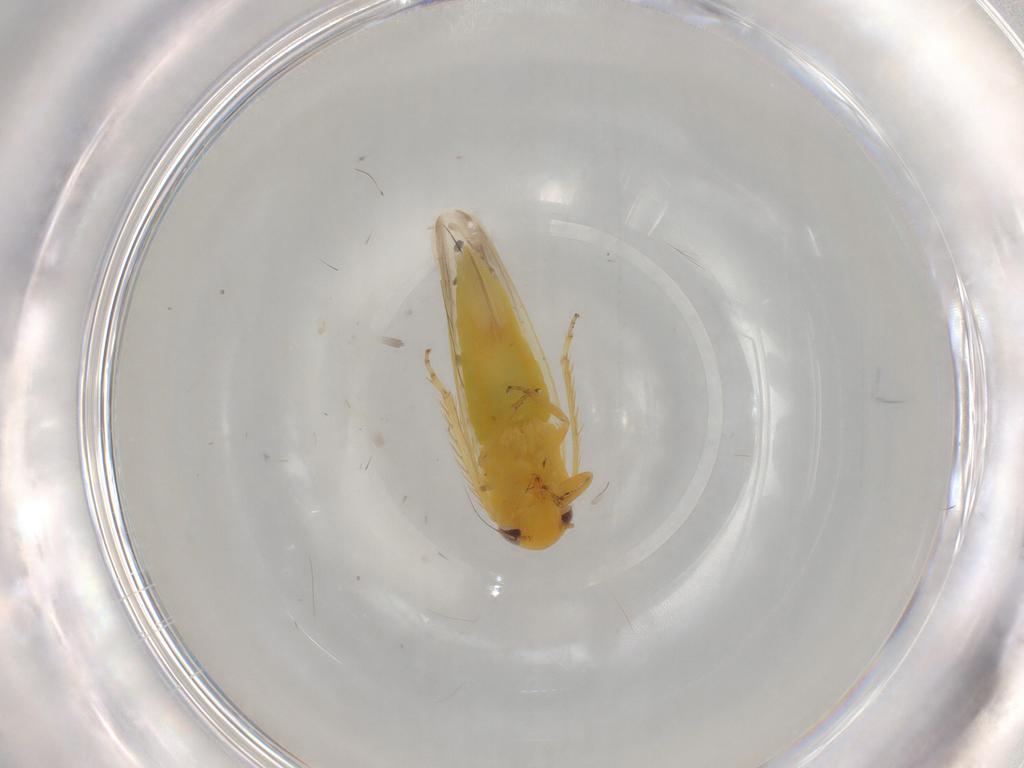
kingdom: Animalia
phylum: Arthropoda
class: Insecta
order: Hemiptera
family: Cicadellidae
